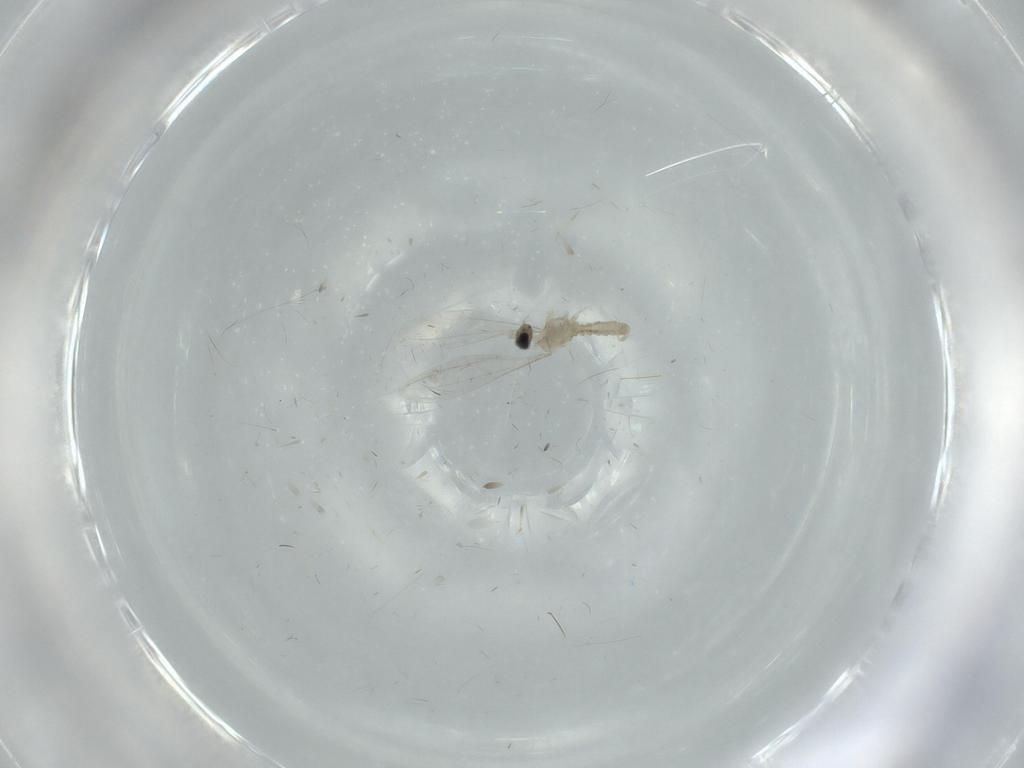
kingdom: Animalia
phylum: Arthropoda
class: Insecta
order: Diptera
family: Cecidomyiidae
